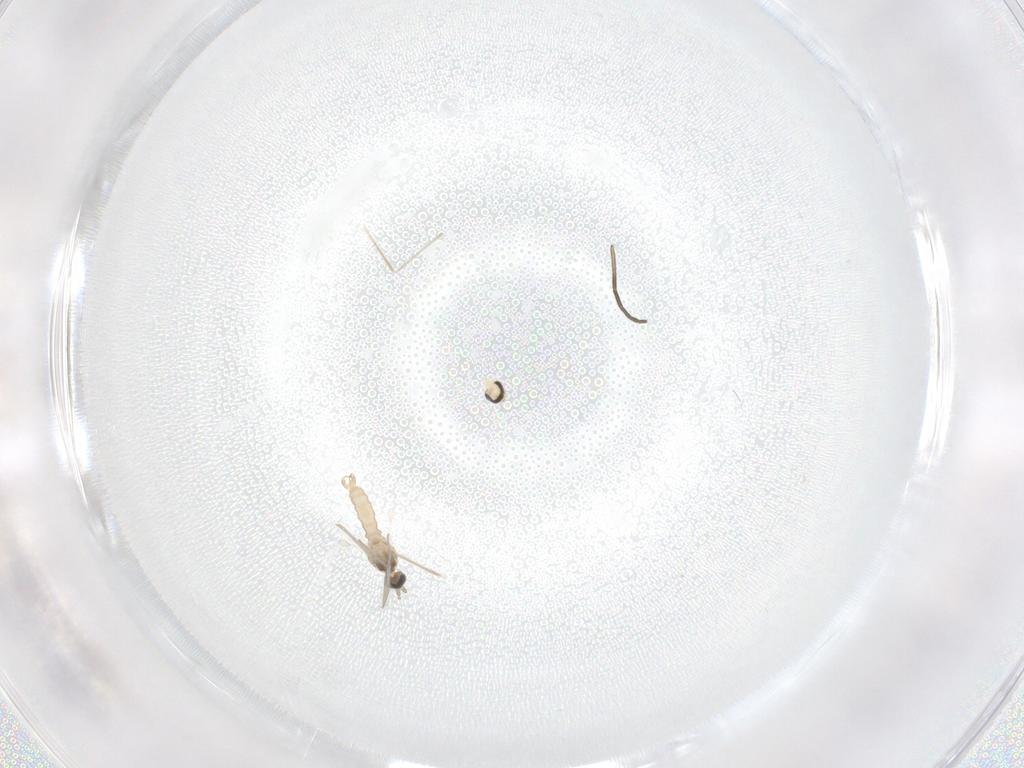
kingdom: Animalia
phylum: Arthropoda
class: Insecta
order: Diptera
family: Cecidomyiidae
